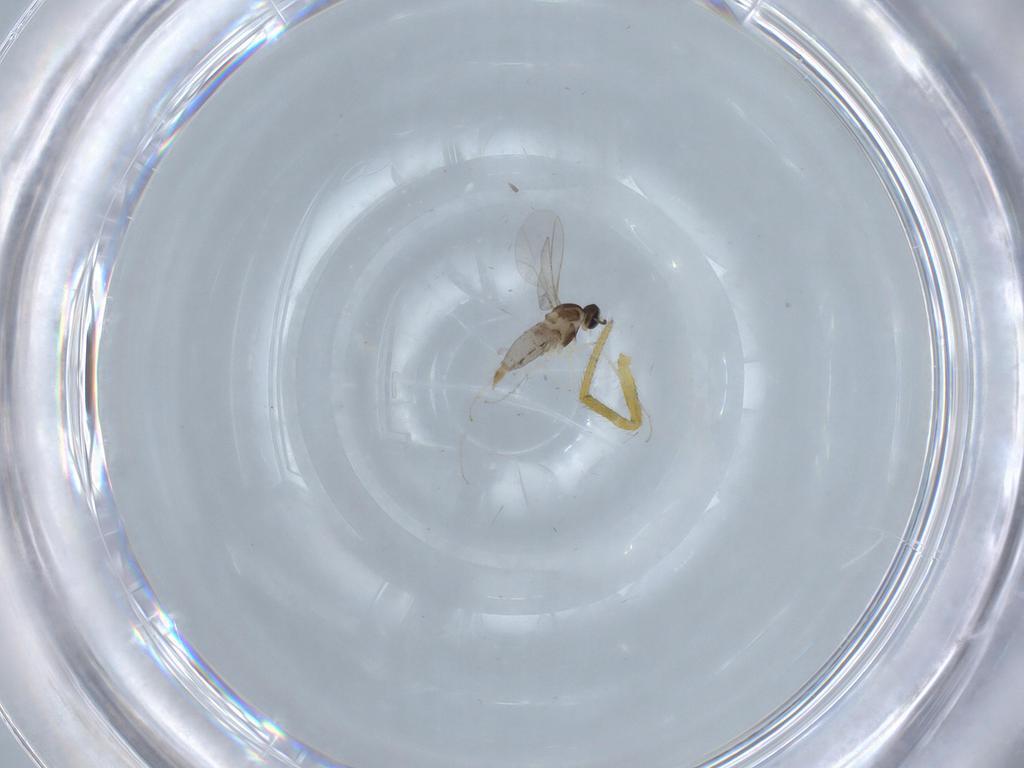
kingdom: Animalia
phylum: Arthropoda
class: Insecta
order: Diptera
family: Cecidomyiidae
